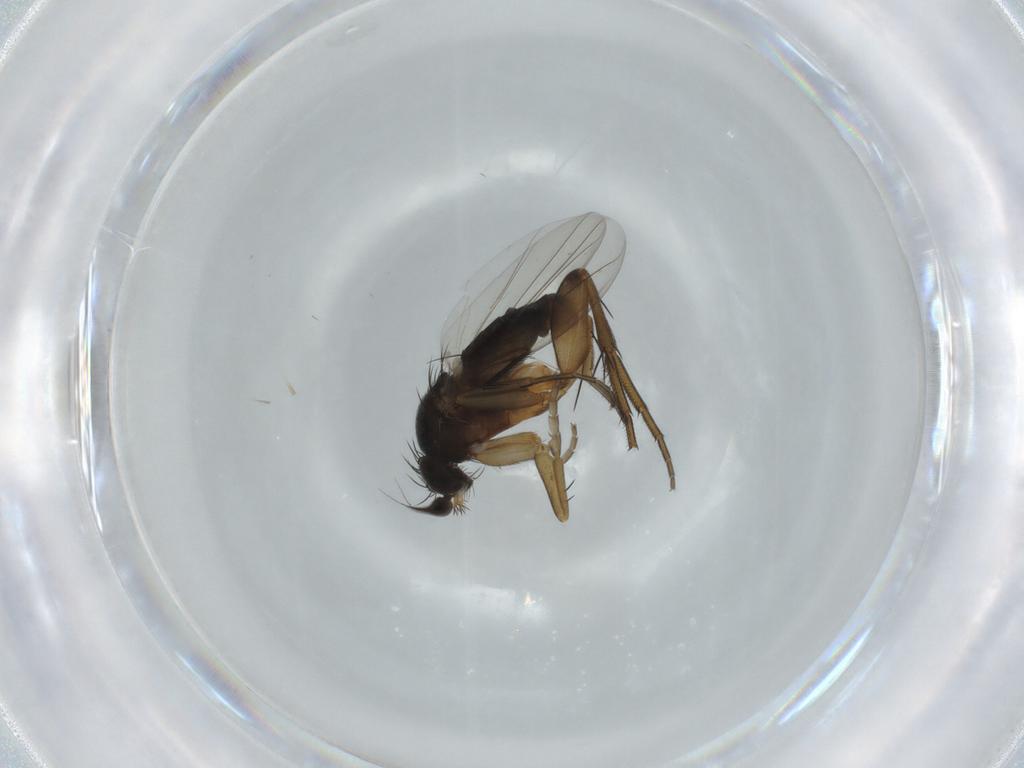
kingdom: Animalia
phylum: Arthropoda
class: Insecta
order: Diptera
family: Phoridae
